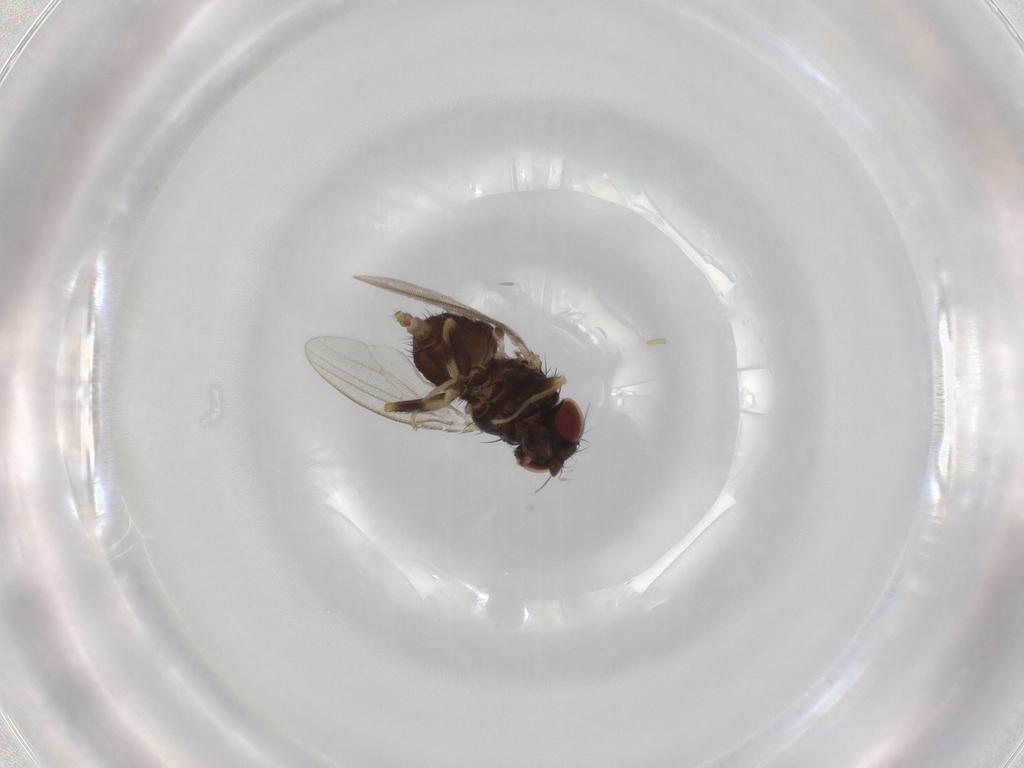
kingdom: Animalia
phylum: Arthropoda
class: Insecta
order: Diptera
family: Milichiidae
